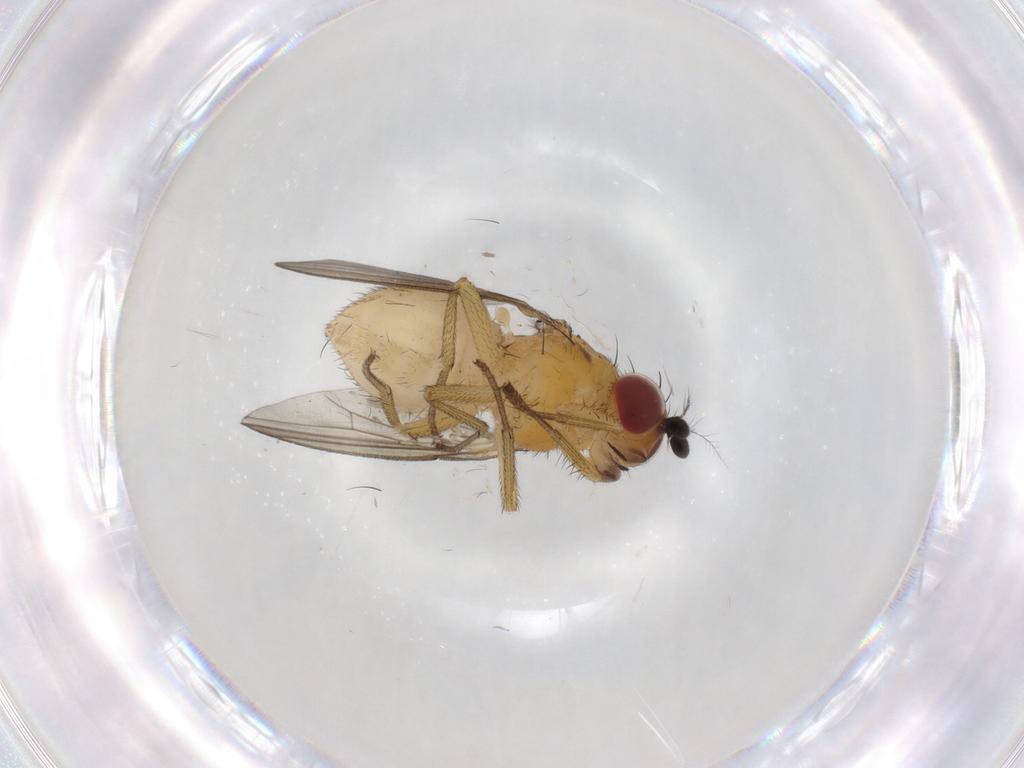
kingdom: Animalia
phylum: Arthropoda
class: Insecta
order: Diptera
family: Cecidomyiidae
